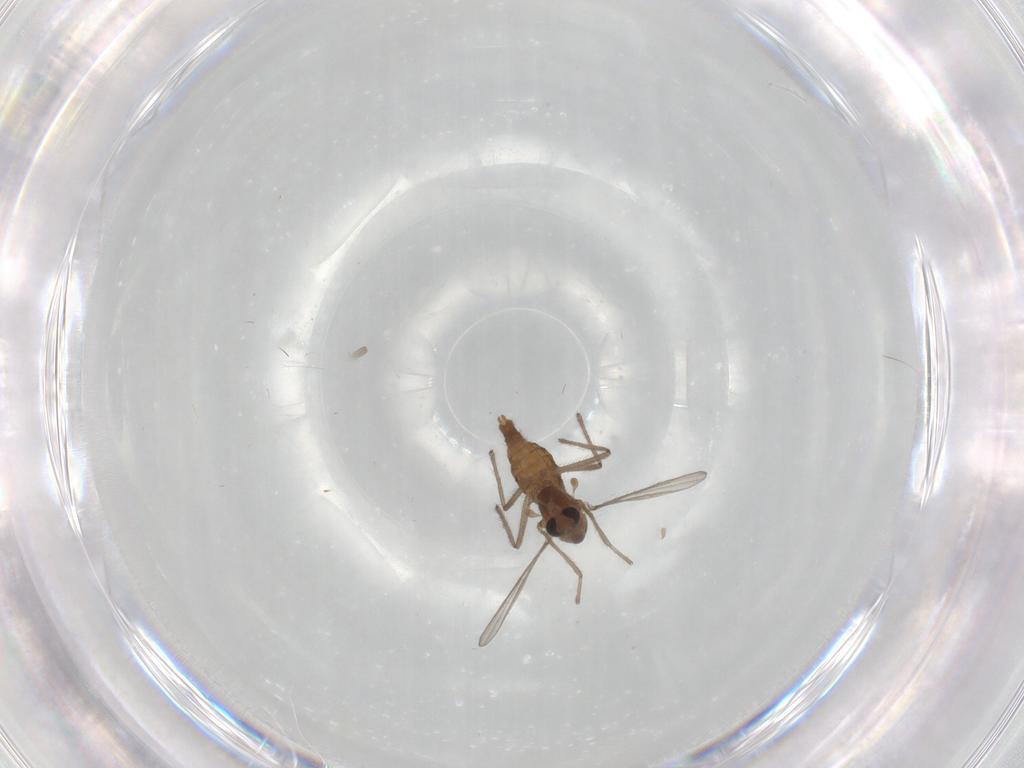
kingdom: Animalia
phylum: Arthropoda
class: Insecta
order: Diptera
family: Chironomidae
